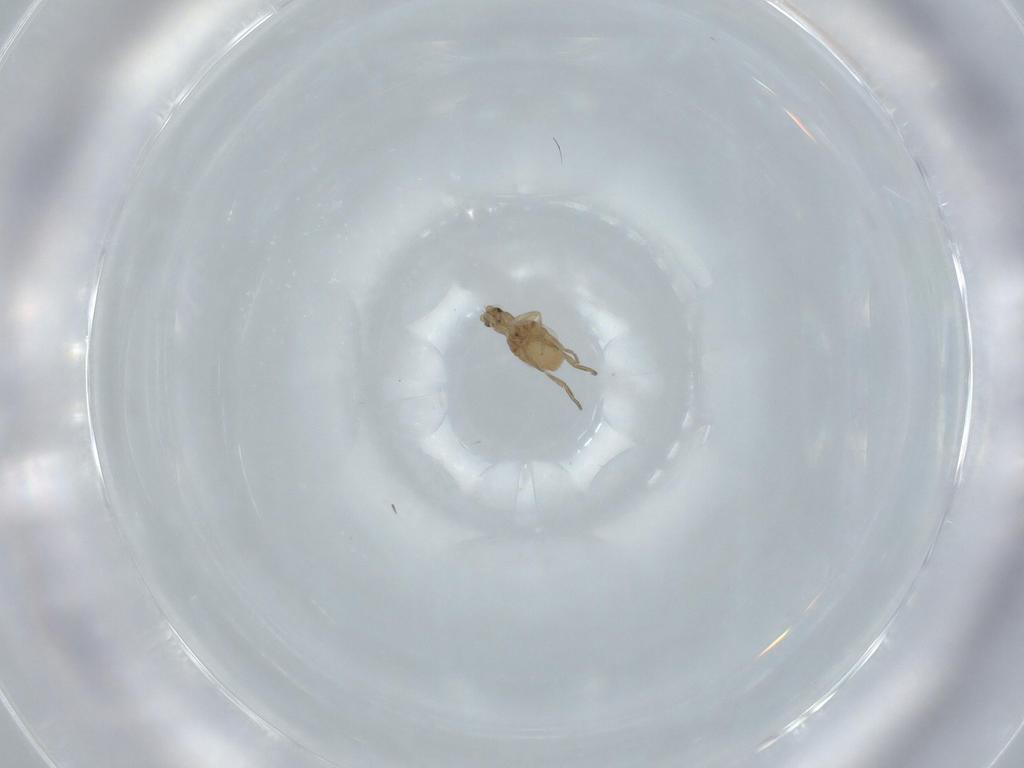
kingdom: Animalia
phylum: Arthropoda
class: Insecta
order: Diptera
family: Phoridae
